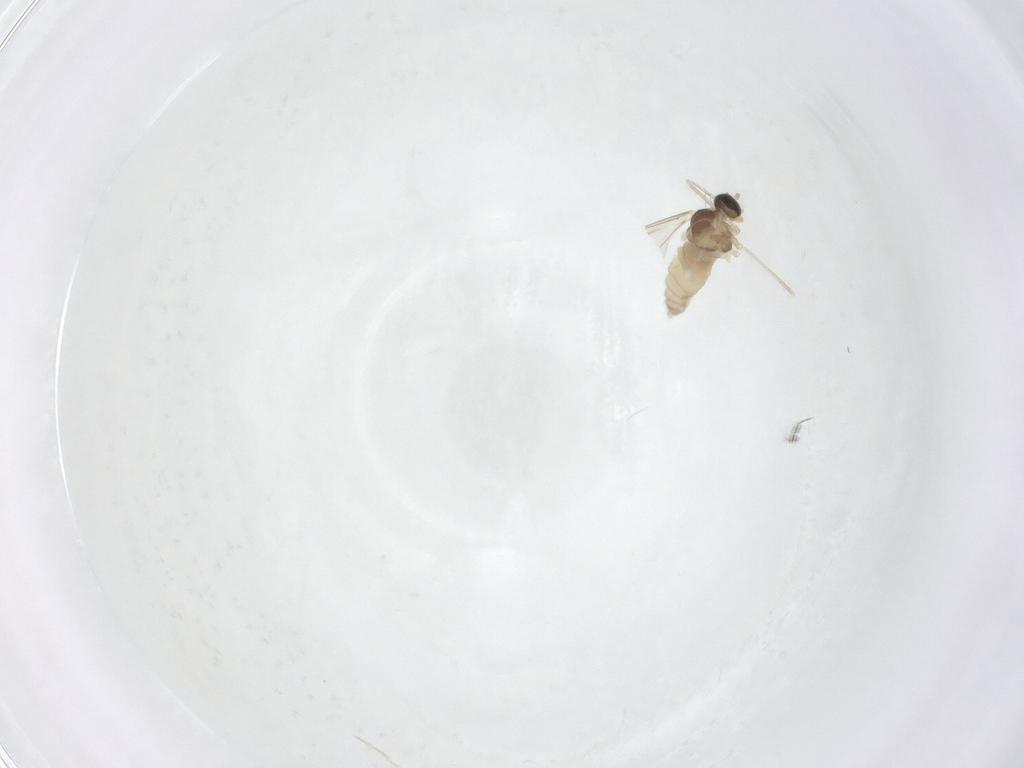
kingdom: Animalia
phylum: Arthropoda
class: Insecta
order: Diptera
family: Cecidomyiidae
